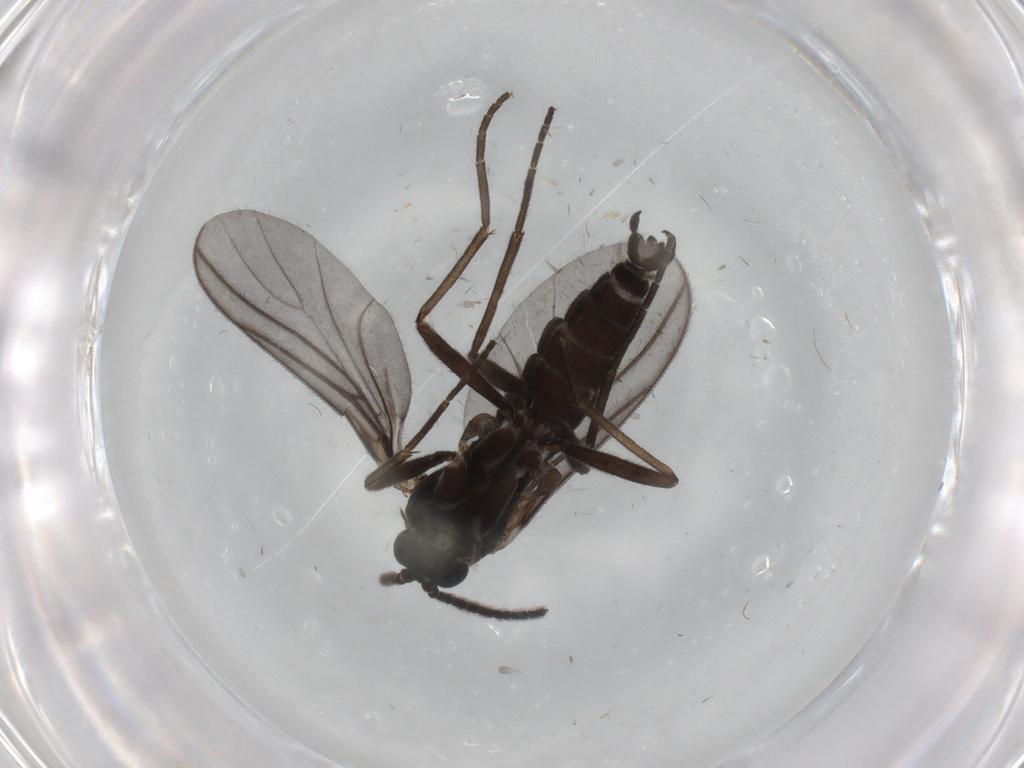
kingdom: Animalia
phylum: Arthropoda
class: Insecta
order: Diptera
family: Sciaridae
